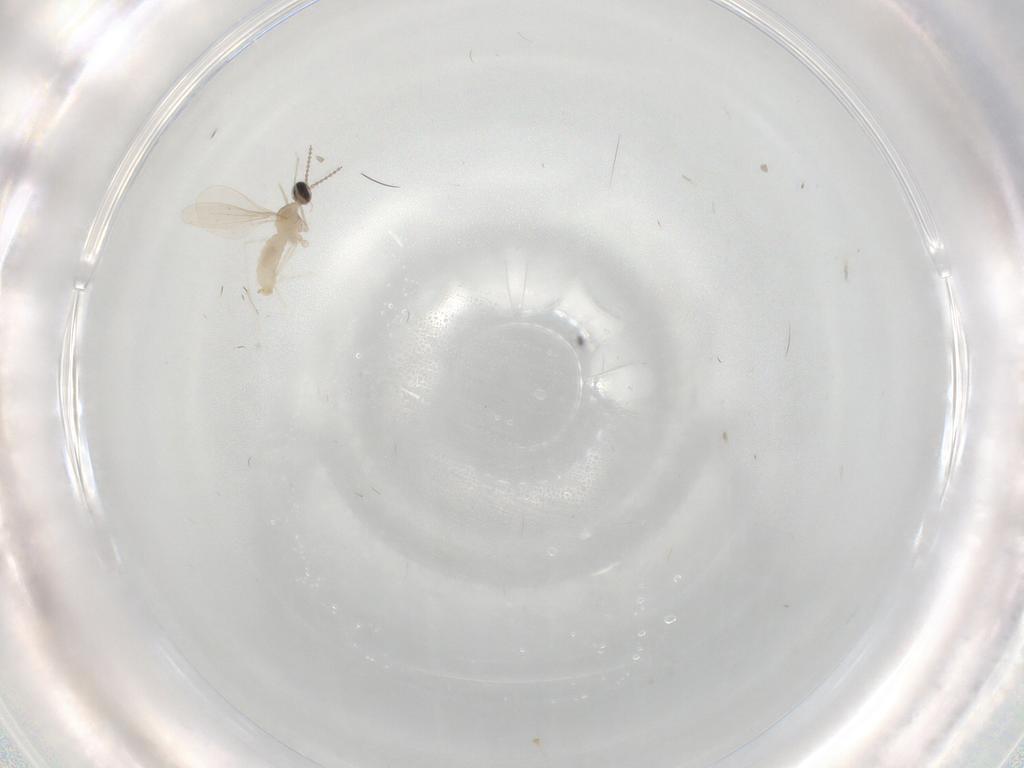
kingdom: Animalia
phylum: Arthropoda
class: Insecta
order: Diptera
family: Cecidomyiidae
